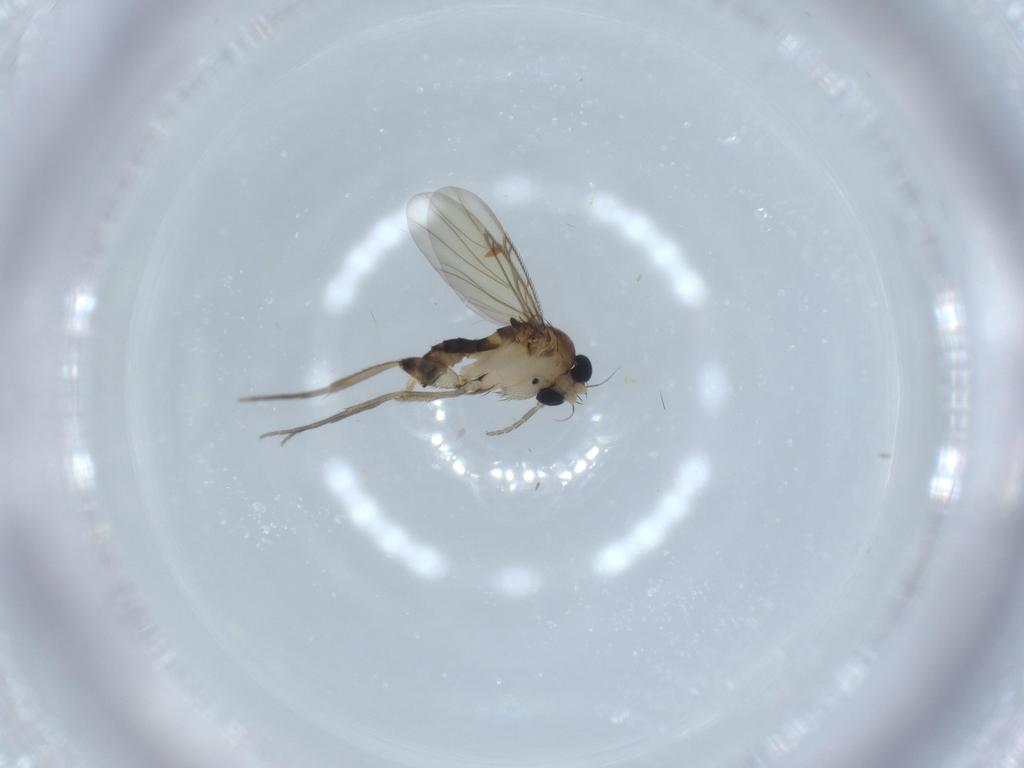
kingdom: Animalia
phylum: Arthropoda
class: Insecta
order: Diptera
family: Phoridae
